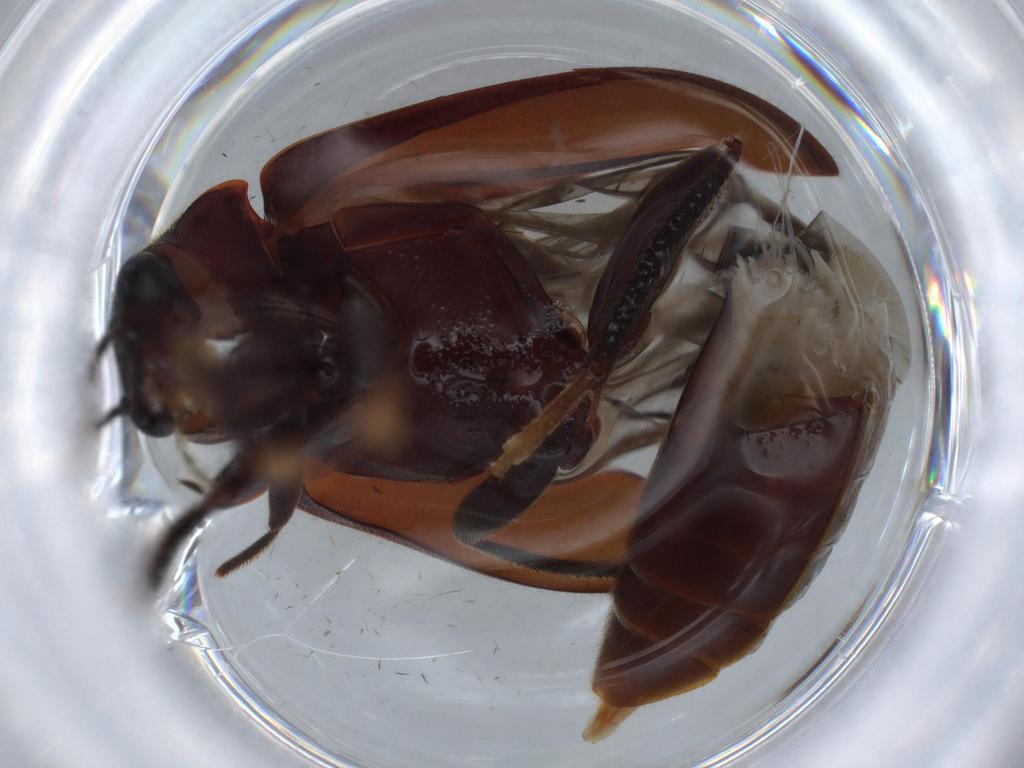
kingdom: Animalia
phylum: Arthropoda
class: Insecta
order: Coleoptera
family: Ptilodactylidae
